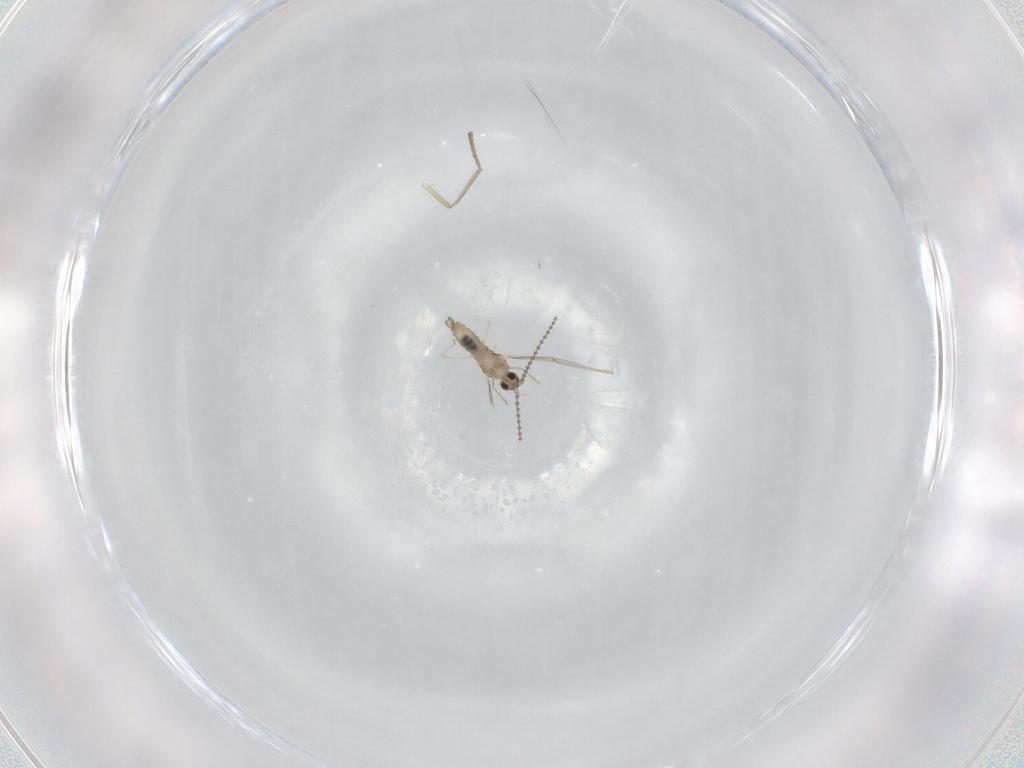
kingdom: Animalia
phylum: Arthropoda
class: Insecta
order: Diptera
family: Cecidomyiidae
